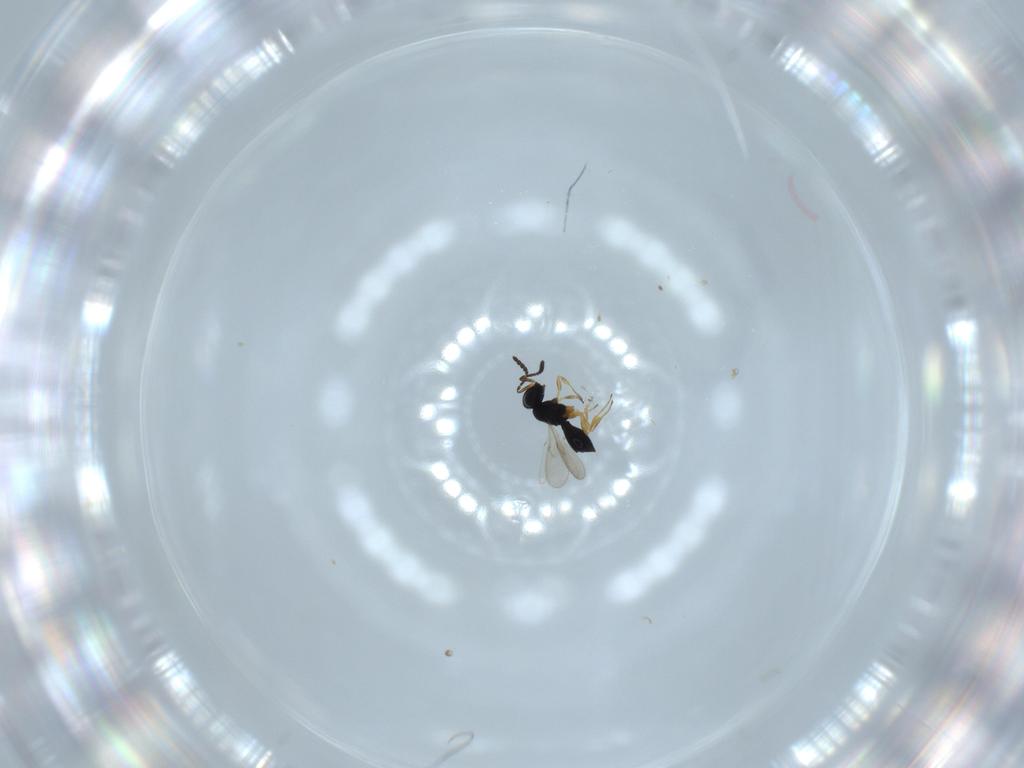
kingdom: Animalia
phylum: Arthropoda
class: Insecta
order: Hymenoptera
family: Scelionidae
